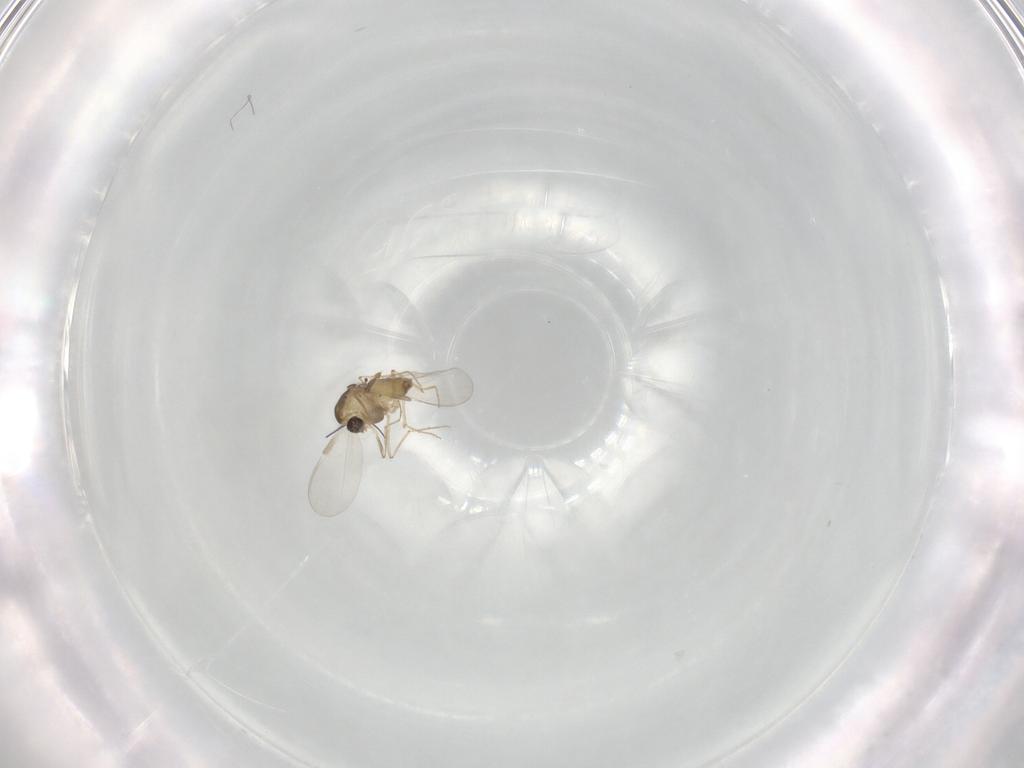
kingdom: Animalia
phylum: Arthropoda
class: Insecta
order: Diptera
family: Chironomidae
